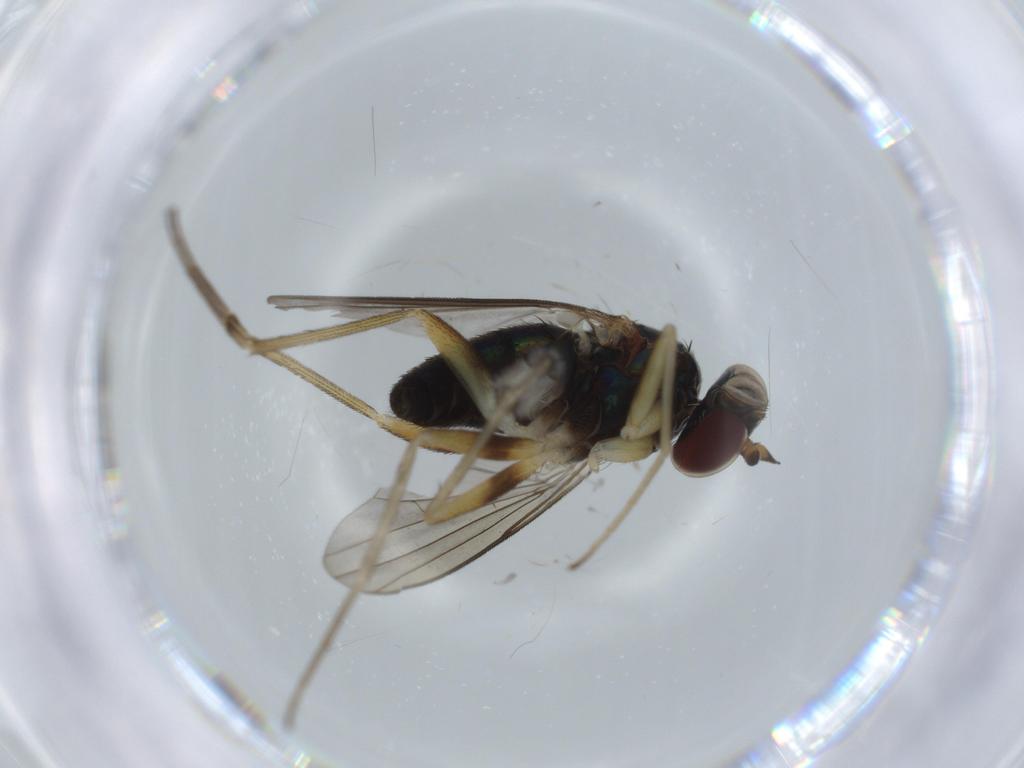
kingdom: Animalia
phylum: Arthropoda
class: Insecta
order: Diptera
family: Dolichopodidae
